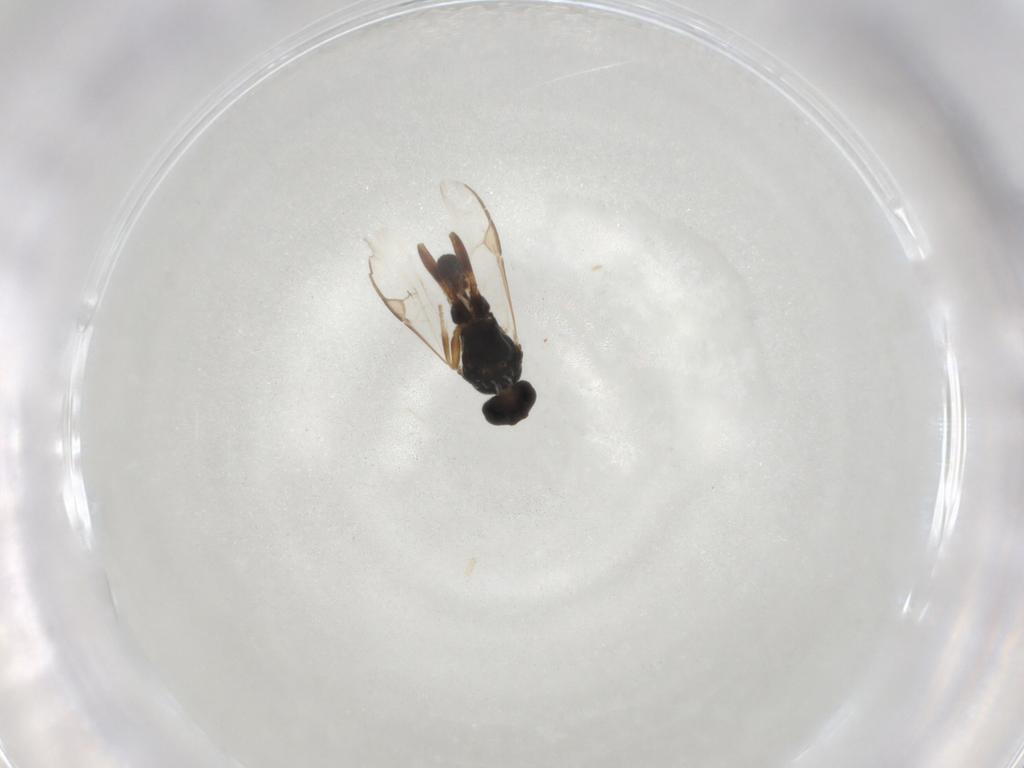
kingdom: Animalia
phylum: Arthropoda
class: Insecta
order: Hymenoptera
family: Braconidae
